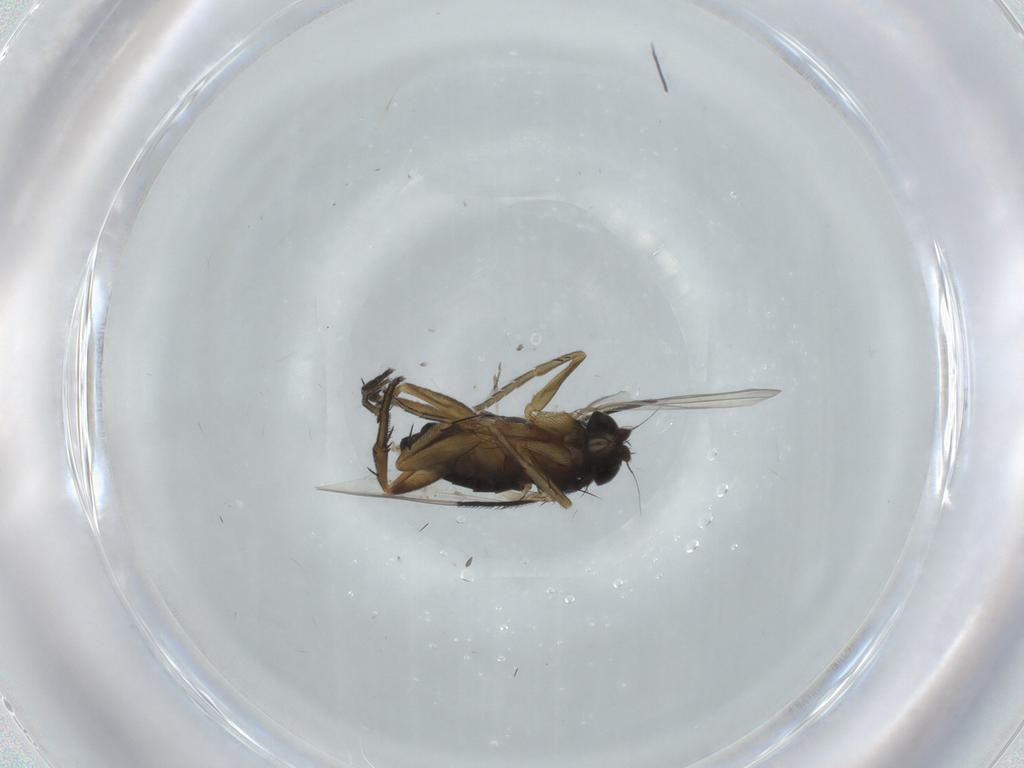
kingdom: Animalia
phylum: Arthropoda
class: Insecta
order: Diptera
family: Phoridae
